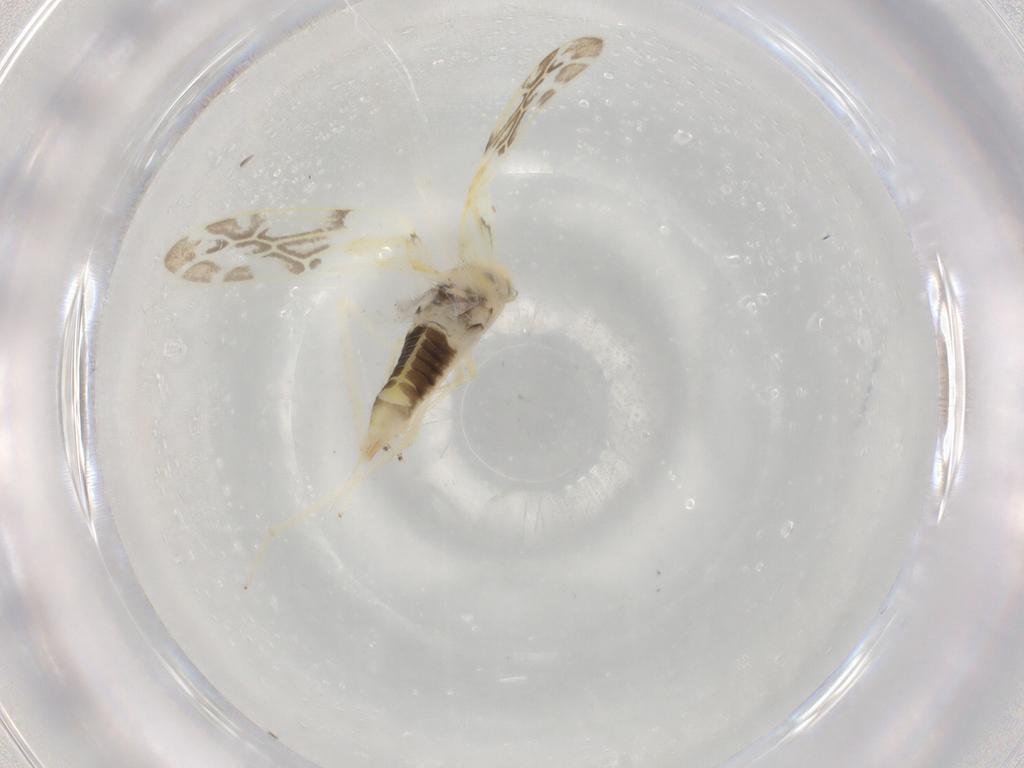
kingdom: Animalia
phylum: Arthropoda
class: Insecta
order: Hemiptera
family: Cicadellidae
